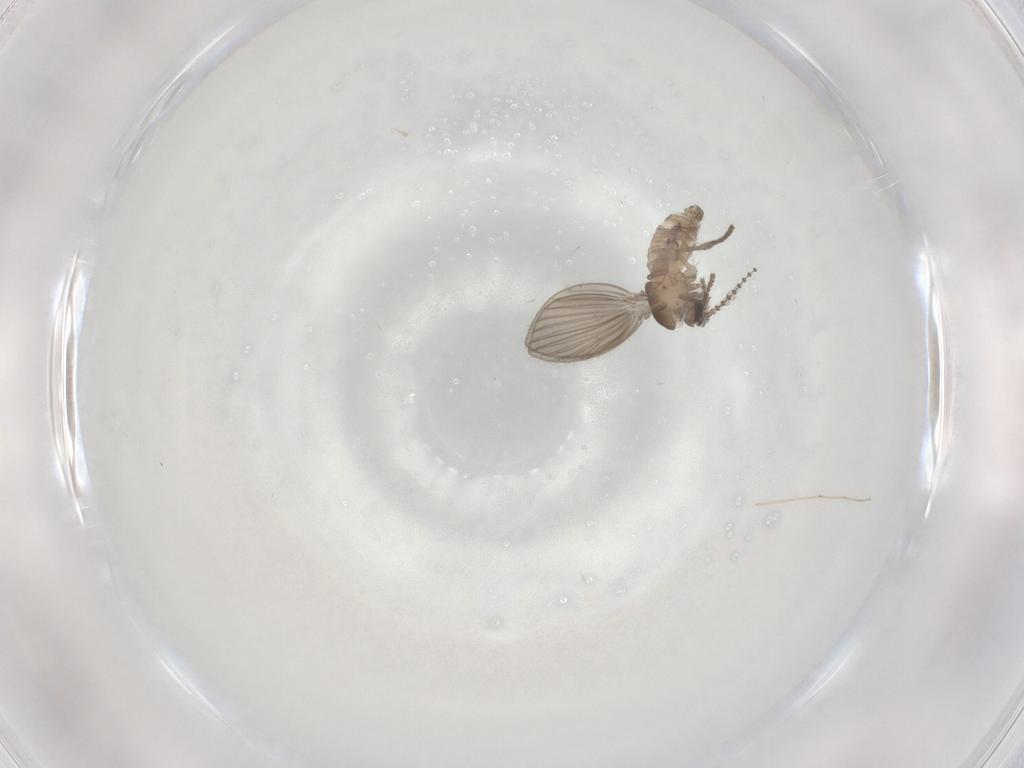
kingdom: Animalia
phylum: Arthropoda
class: Insecta
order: Diptera
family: Psychodidae
